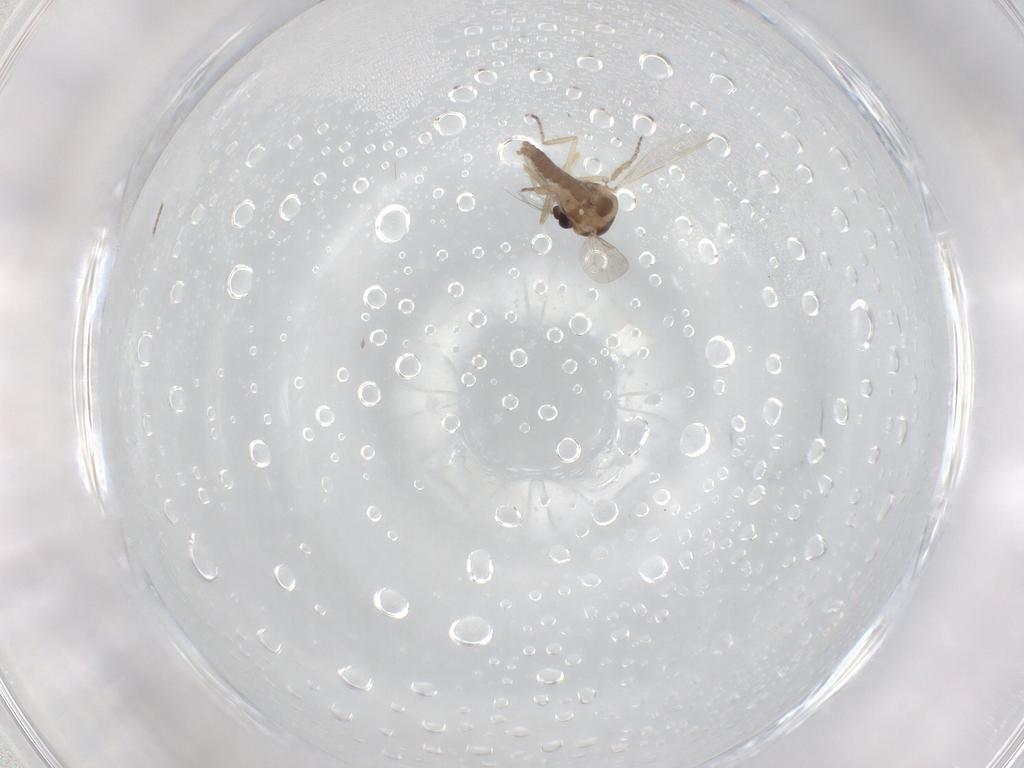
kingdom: Animalia
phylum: Arthropoda
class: Insecta
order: Diptera
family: Ceratopogonidae
